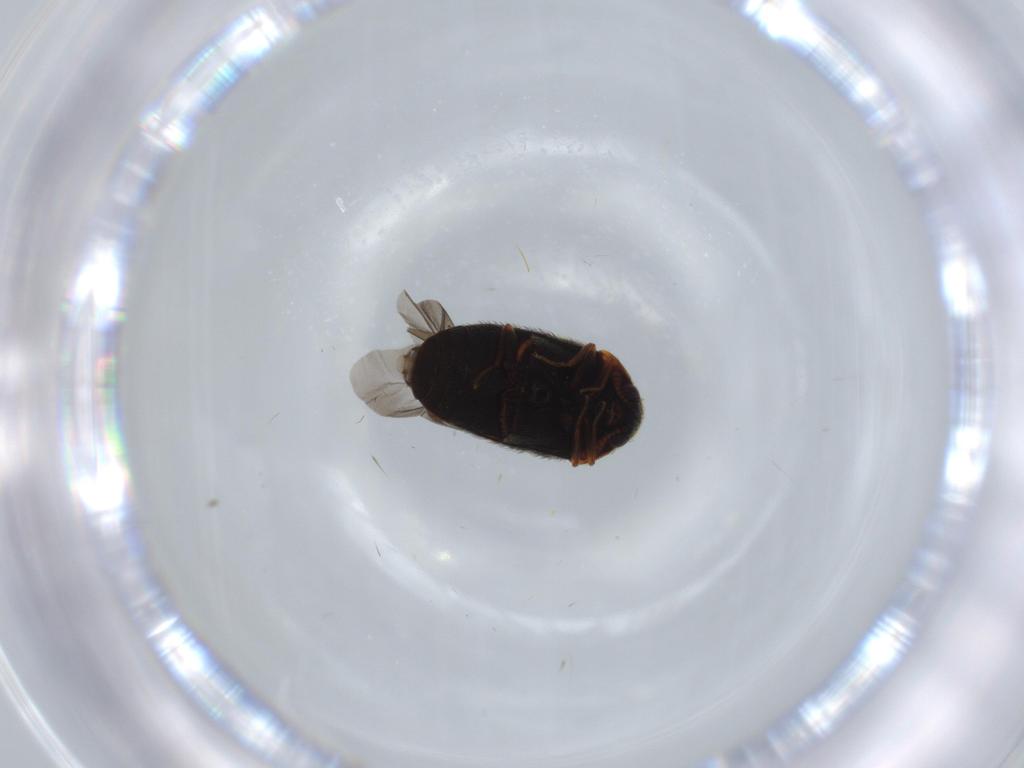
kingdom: Animalia
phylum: Arthropoda
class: Insecta
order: Coleoptera
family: Dermestidae
